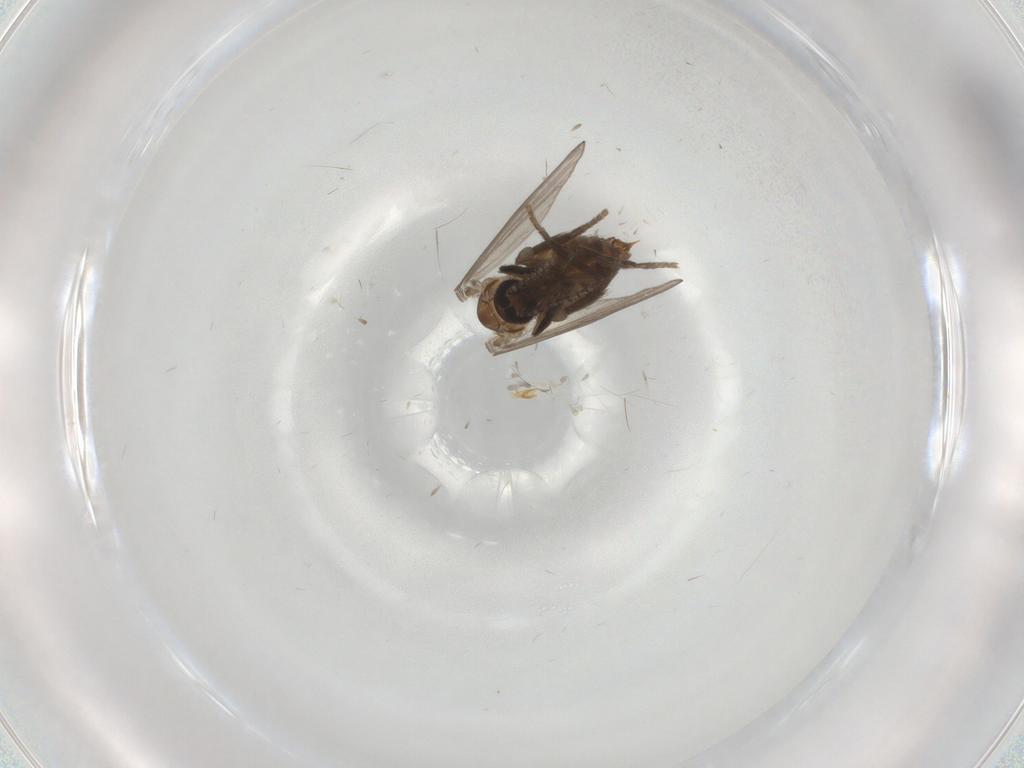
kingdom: Animalia
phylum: Arthropoda
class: Insecta
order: Diptera
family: Psychodidae
